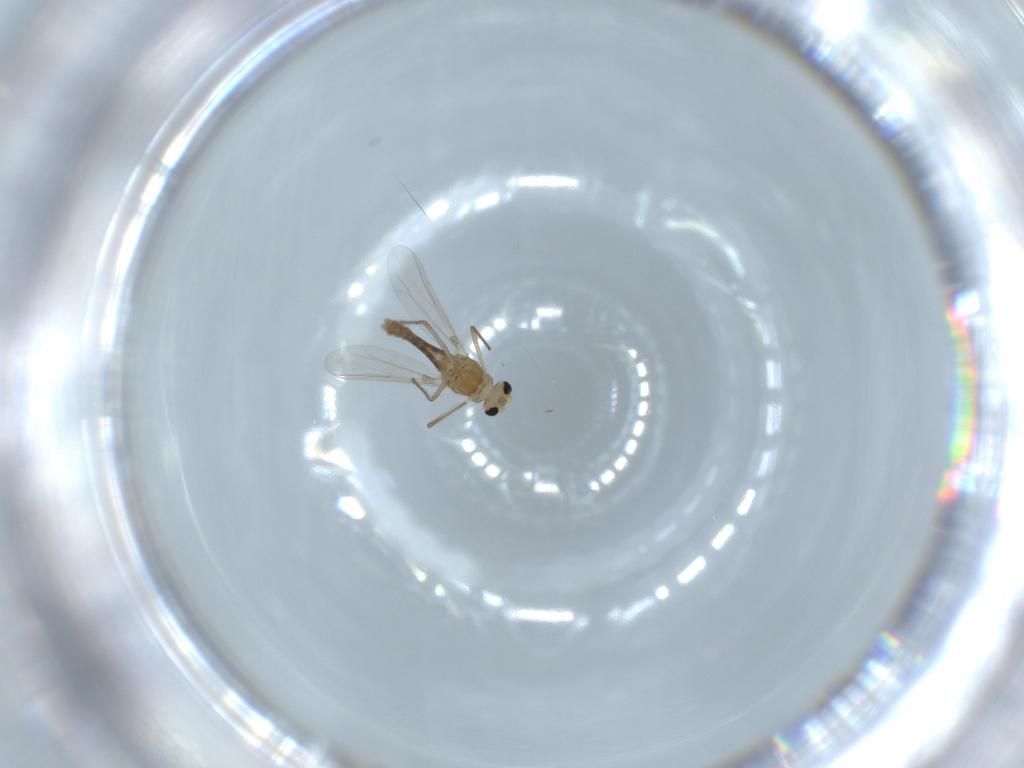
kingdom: Animalia
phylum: Arthropoda
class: Insecta
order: Diptera
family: Chironomidae
